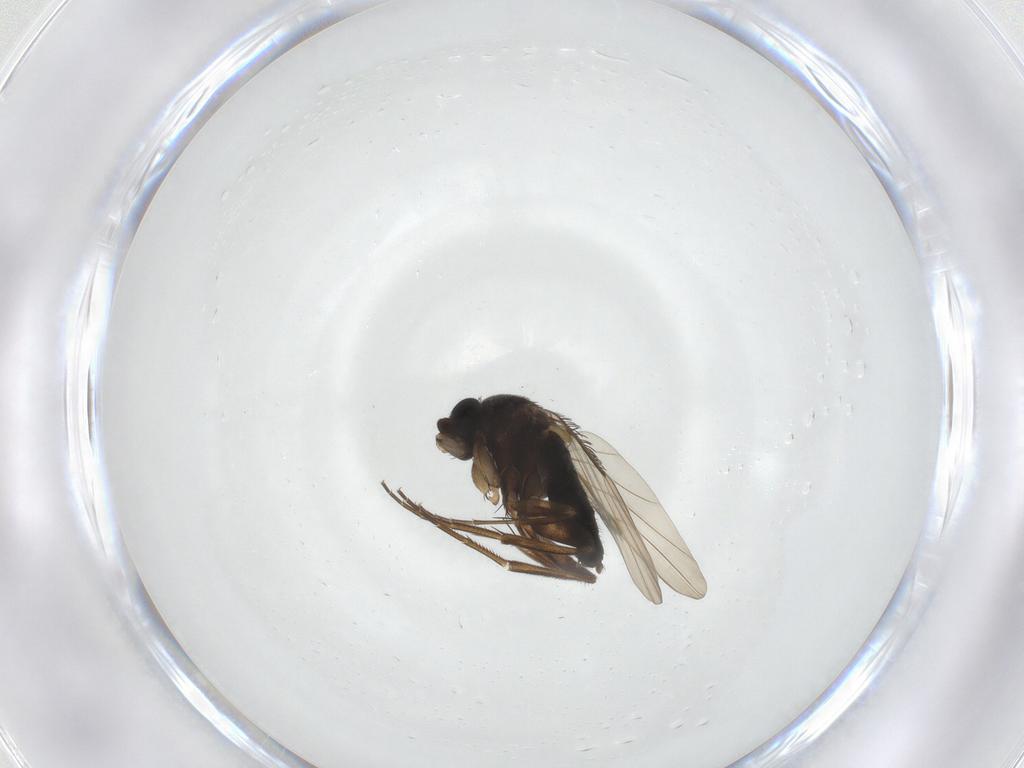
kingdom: Animalia
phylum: Arthropoda
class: Insecta
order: Diptera
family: Phoridae
